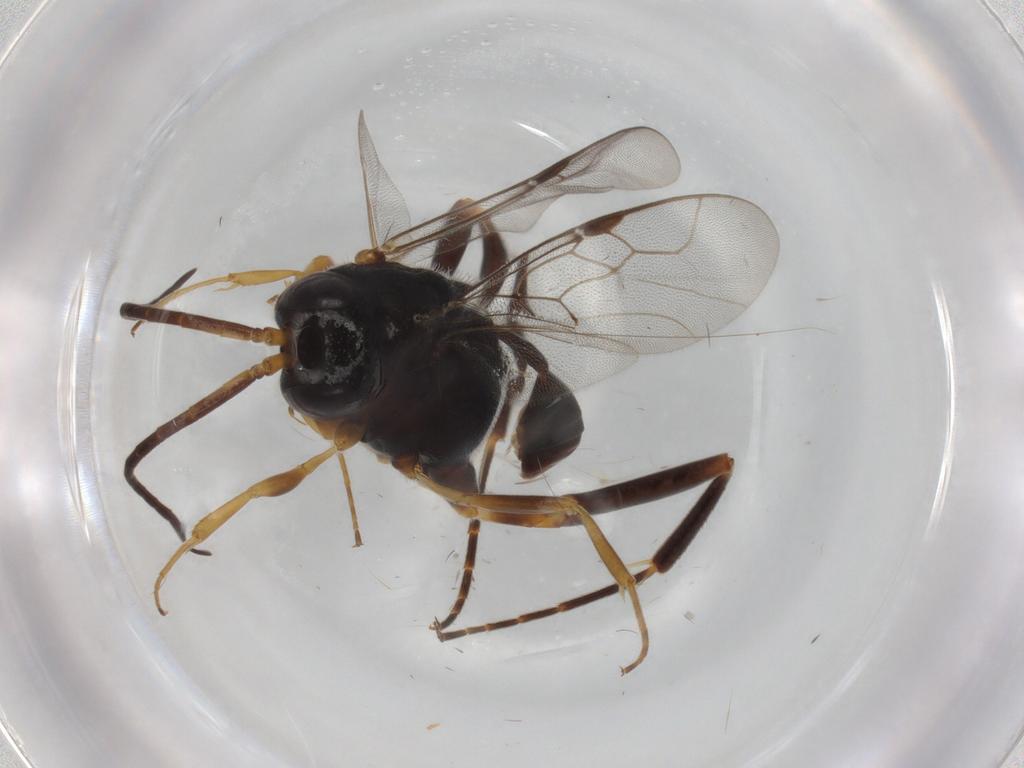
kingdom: Animalia
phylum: Arthropoda
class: Insecta
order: Hymenoptera
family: Evaniidae
